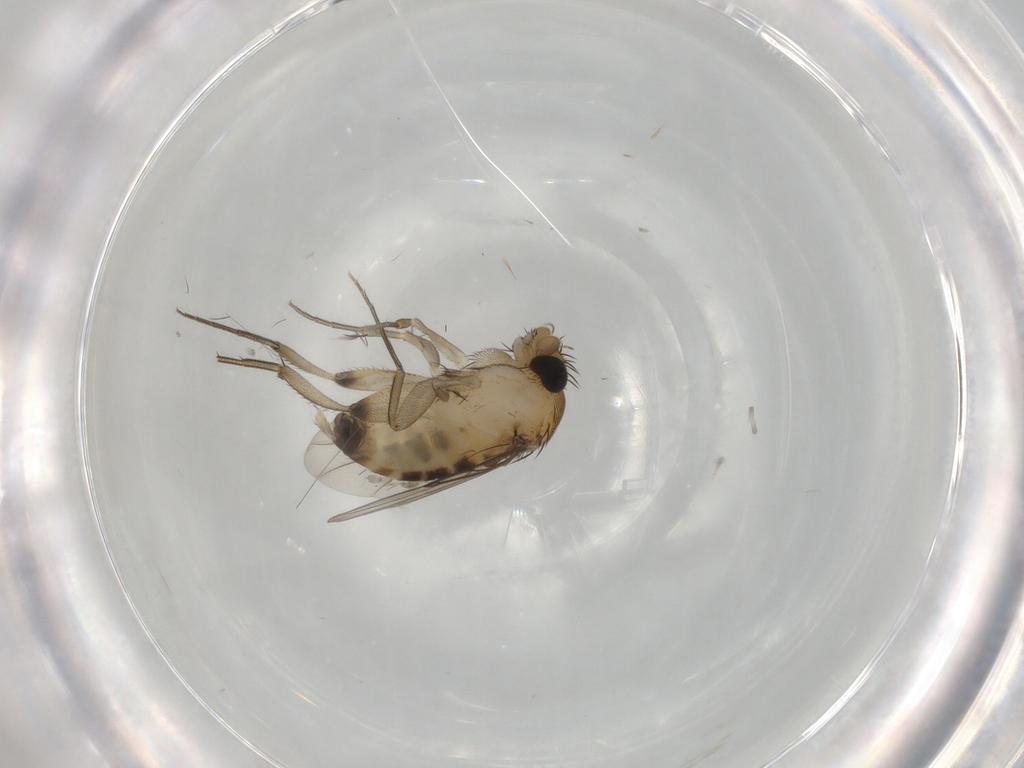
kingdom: Animalia
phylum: Arthropoda
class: Insecta
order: Diptera
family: Phoridae
